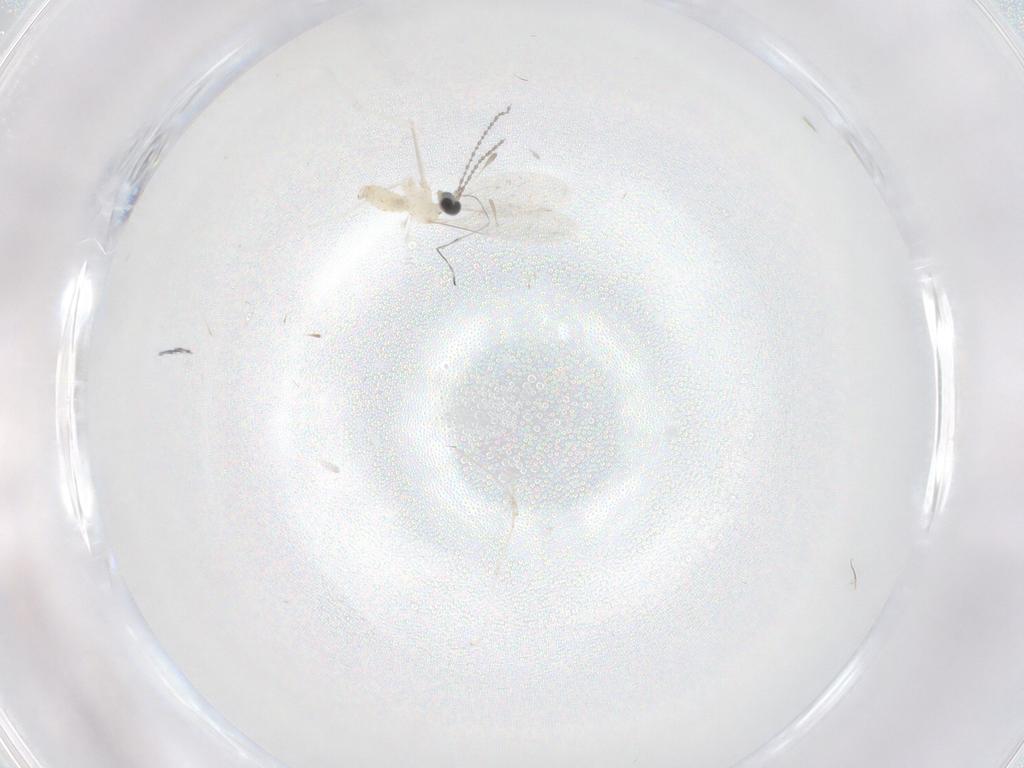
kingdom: Animalia
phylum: Arthropoda
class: Insecta
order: Diptera
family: Cecidomyiidae
